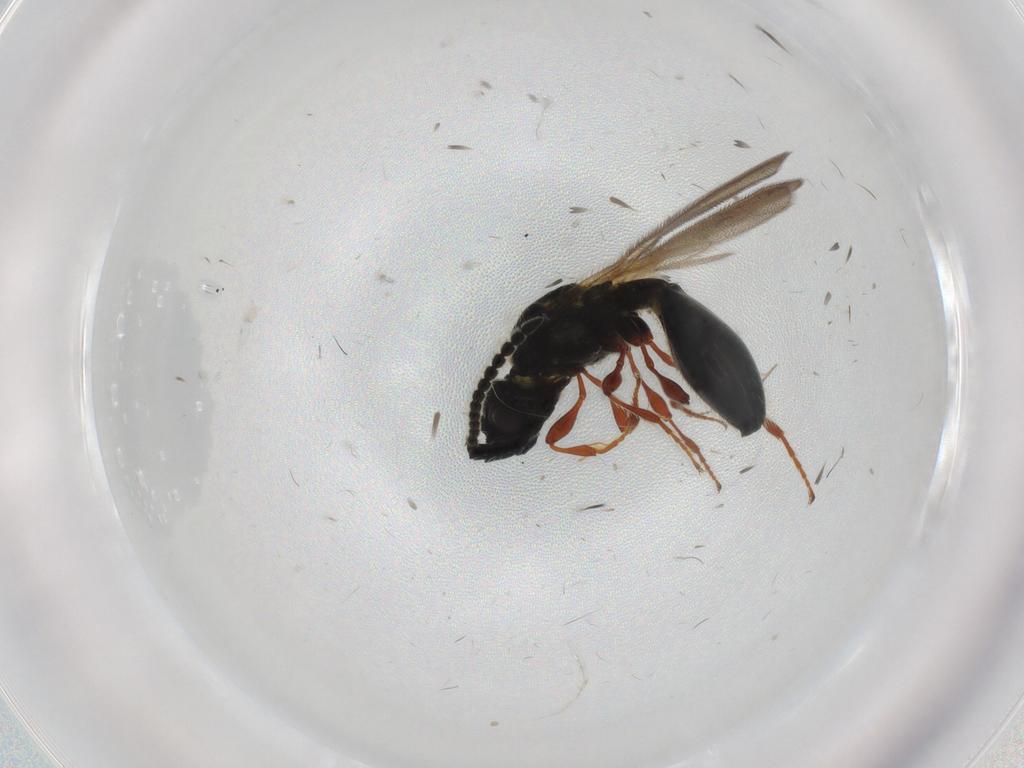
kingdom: Animalia
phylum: Arthropoda
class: Insecta
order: Hymenoptera
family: Diapriidae
